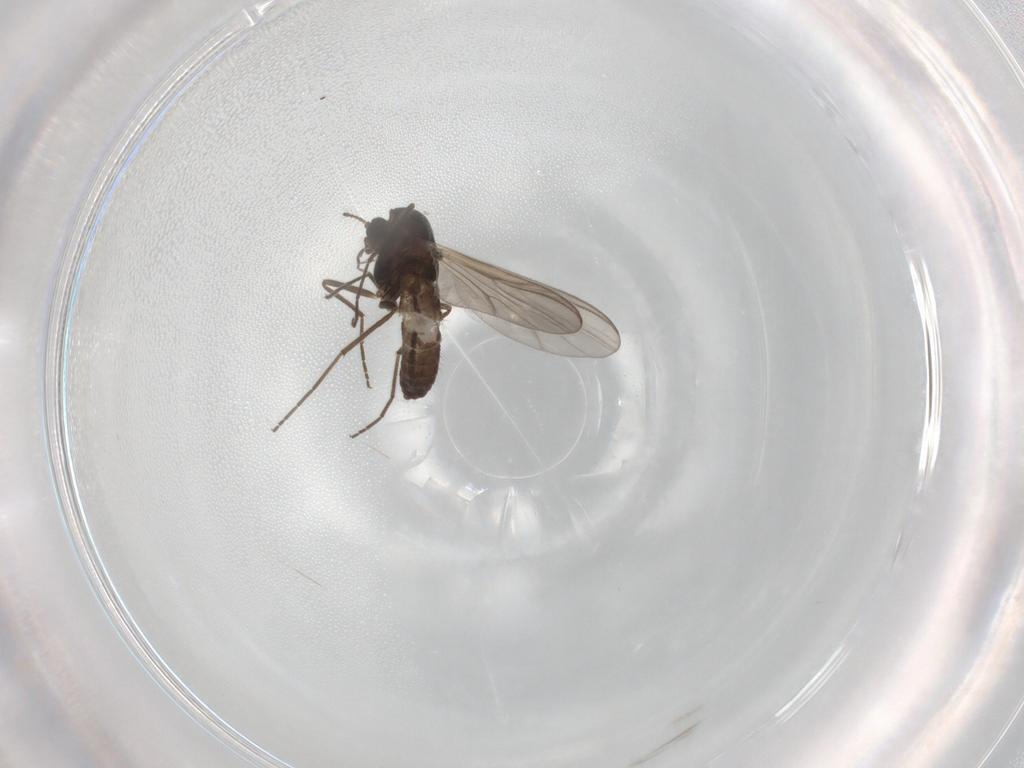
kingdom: Animalia
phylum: Arthropoda
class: Insecta
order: Diptera
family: Chironomidae
